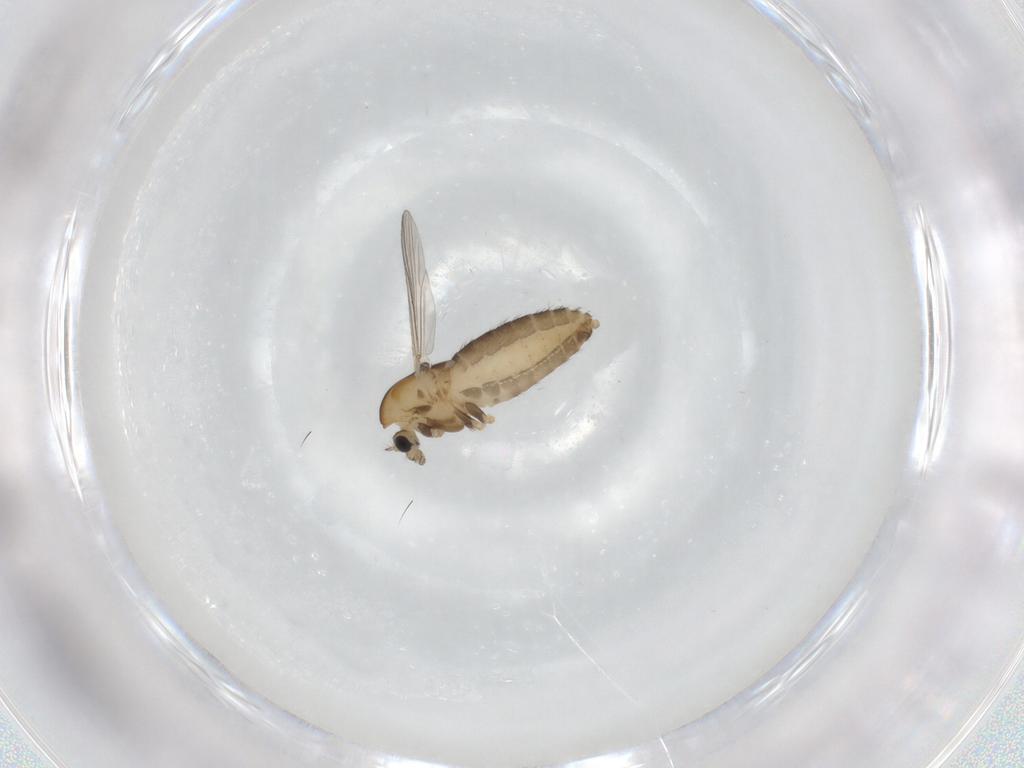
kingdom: Animalia
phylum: Arthropoda
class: Insecta
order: Diptera
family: Chironomidae
